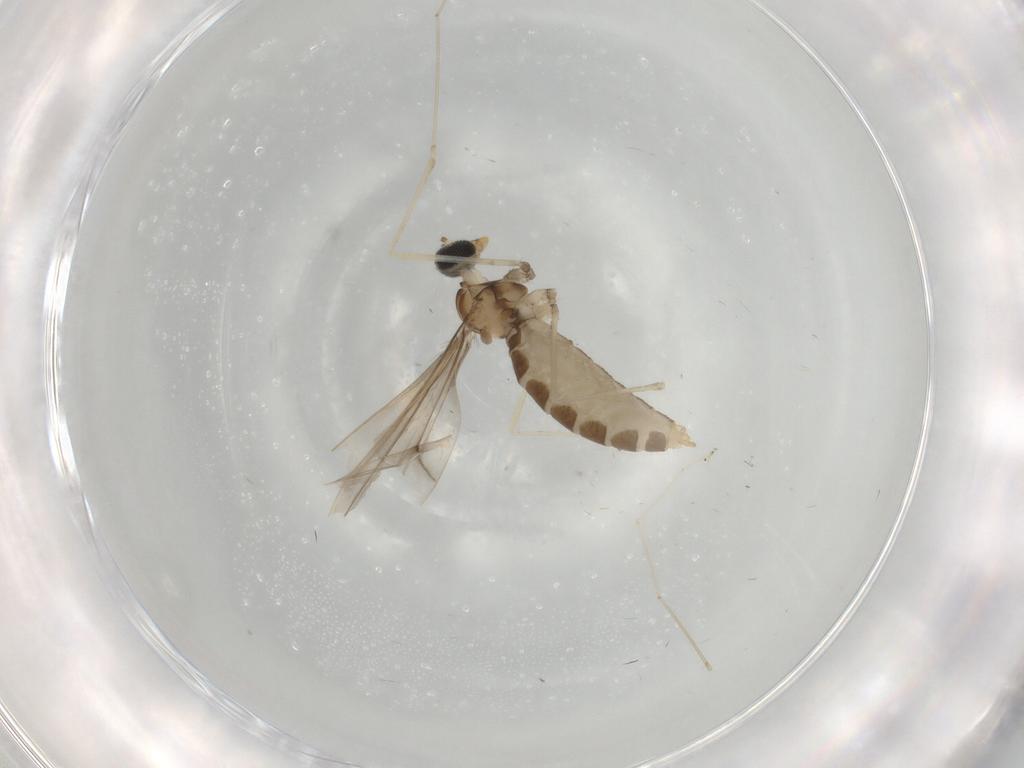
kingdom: Animalia
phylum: Arthropoda
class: Insecta
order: Diptera
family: Cecidomyiidae
